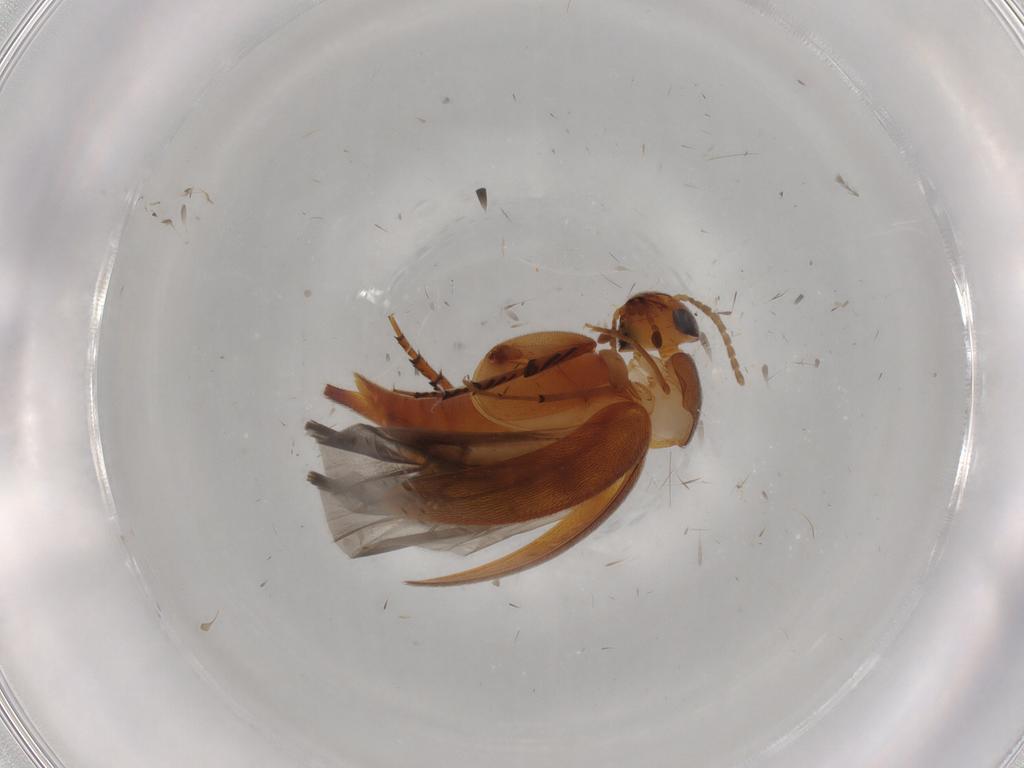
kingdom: Animalia
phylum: Arthropoda
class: Insecta
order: Coleoptera
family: Mordellidae
